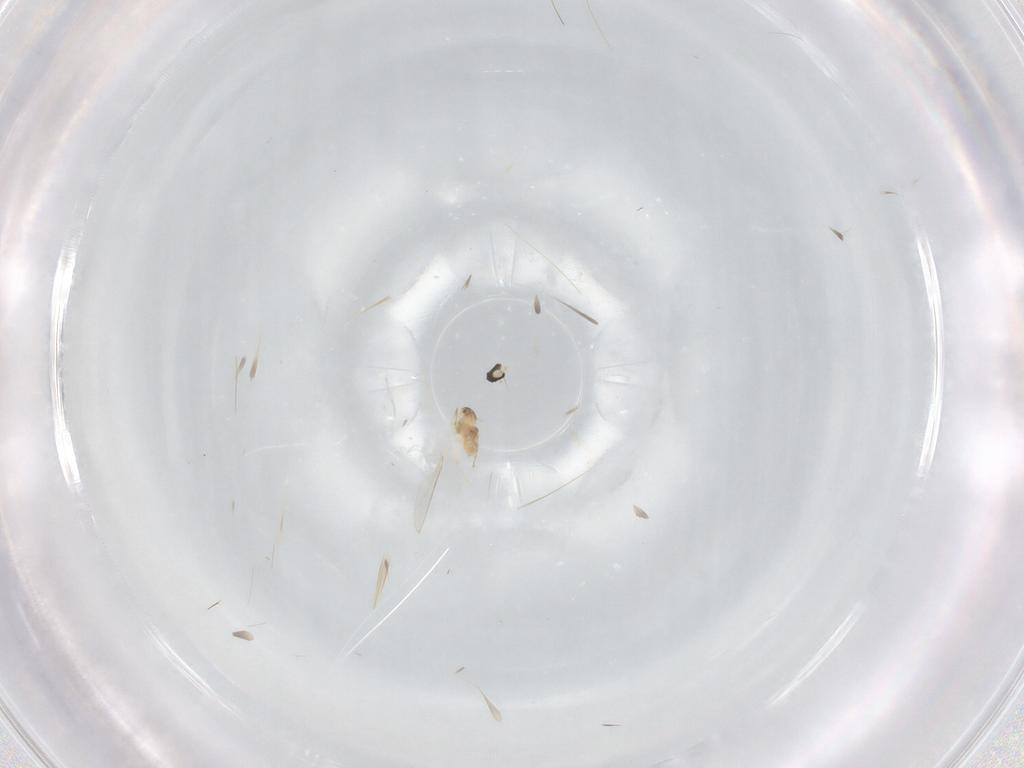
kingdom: Animalia
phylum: Arthropoda
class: Insecta
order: Diptera
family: Cecidomyiidae
